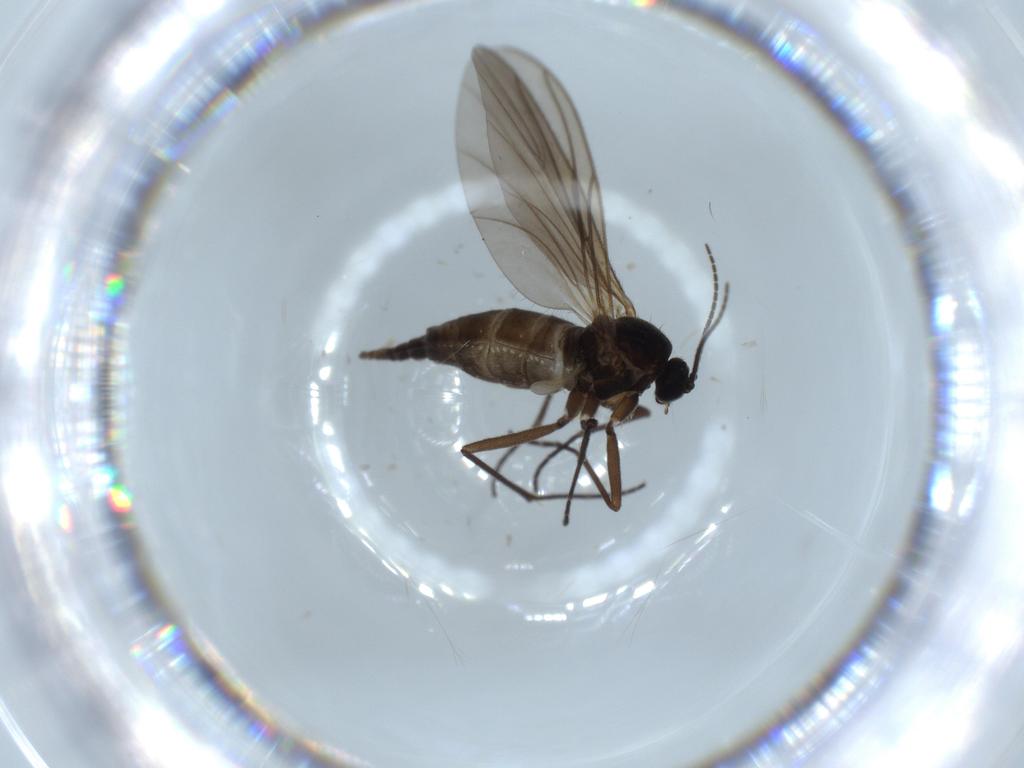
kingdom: Animalia
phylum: Arthropoda
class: Insecta
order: Diptera
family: Sciaridae
